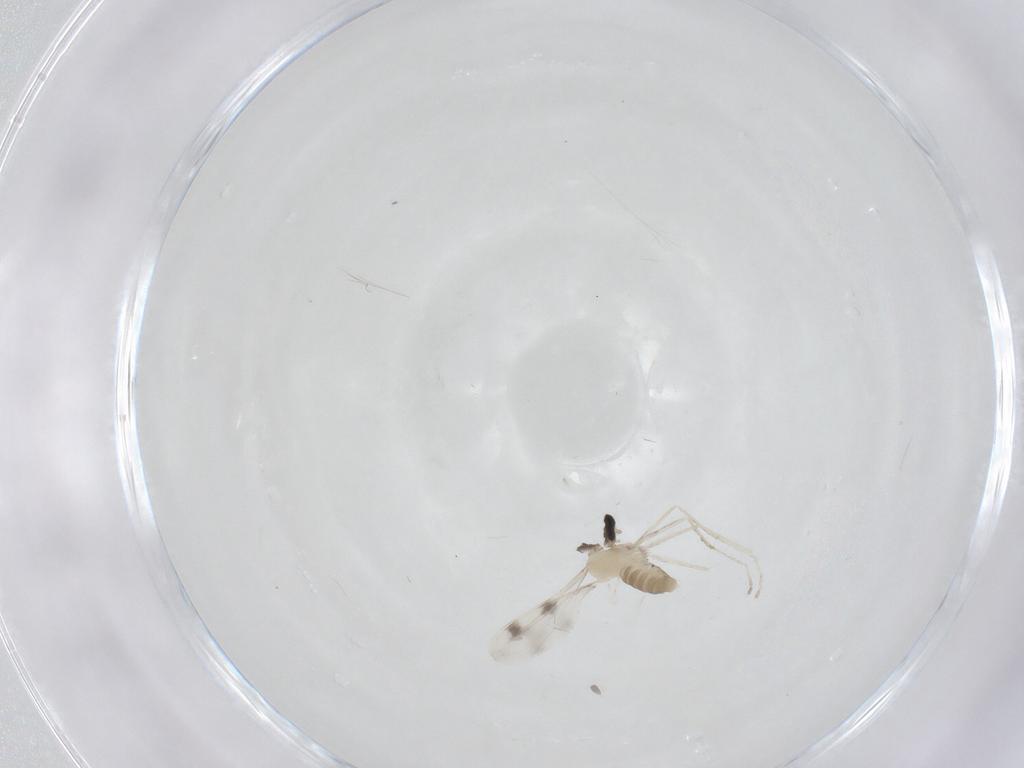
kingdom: Animalia
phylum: Arthropoda
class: Insecta
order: Diptera
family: Cecidomyiidae
